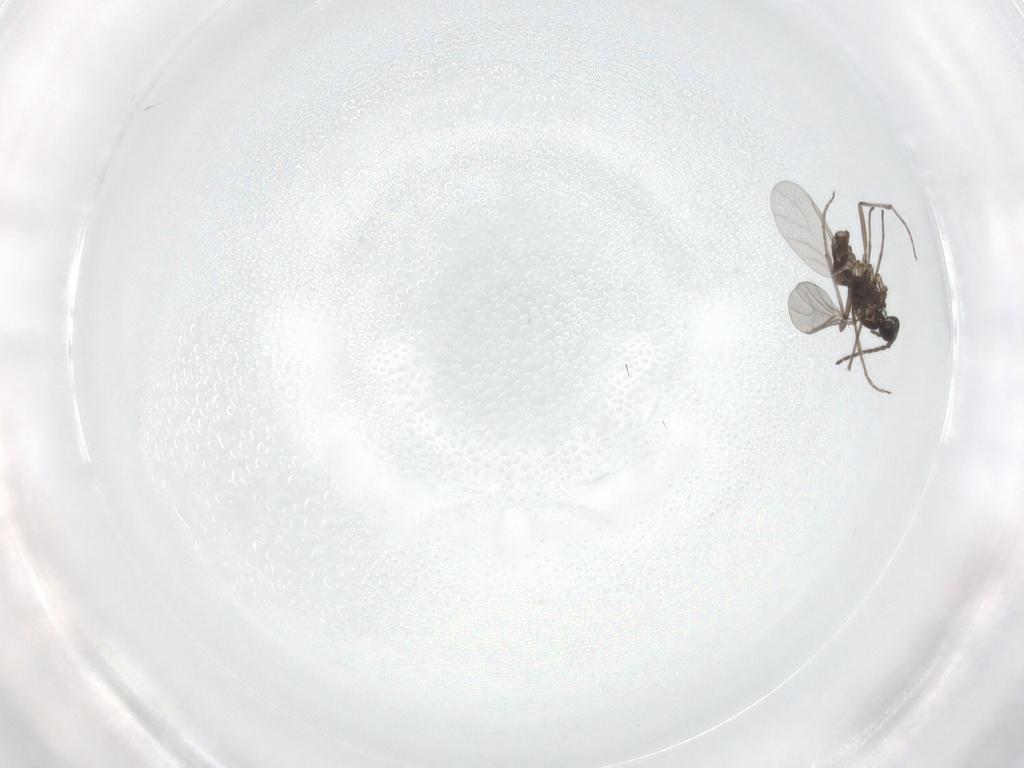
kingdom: Animalia
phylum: Arthropoda
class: Insecta
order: Diptera
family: Sciaridae
